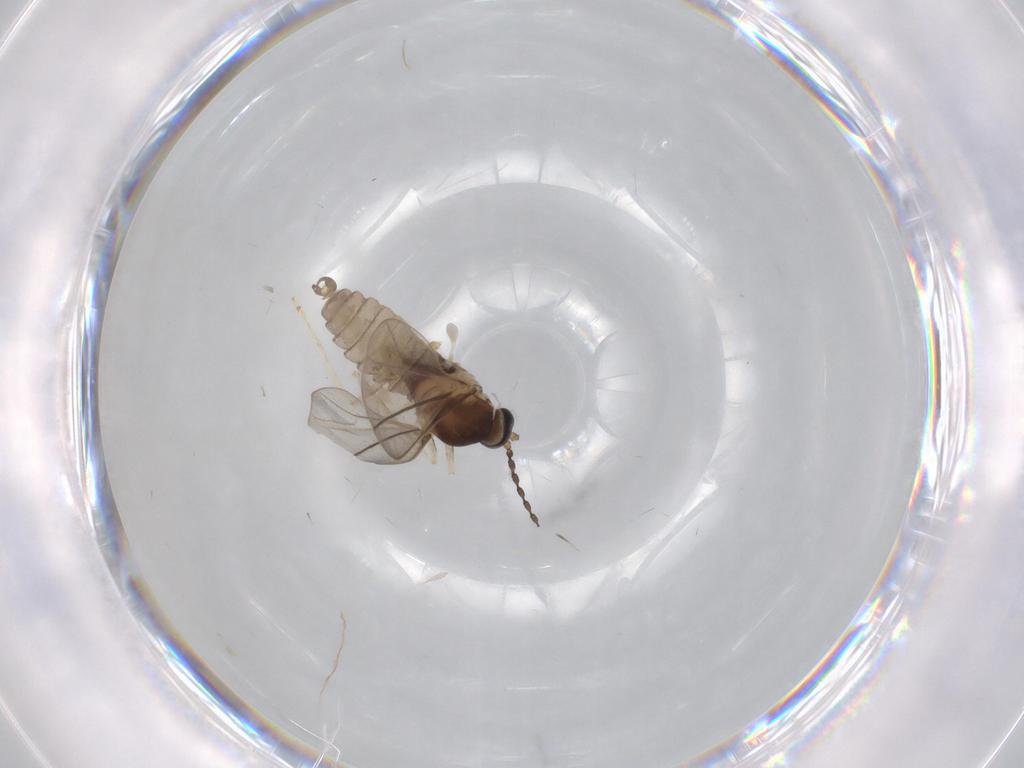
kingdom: Animalia
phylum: Arthropoda
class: Insecta
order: Diptera
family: Cecidomyiidae
